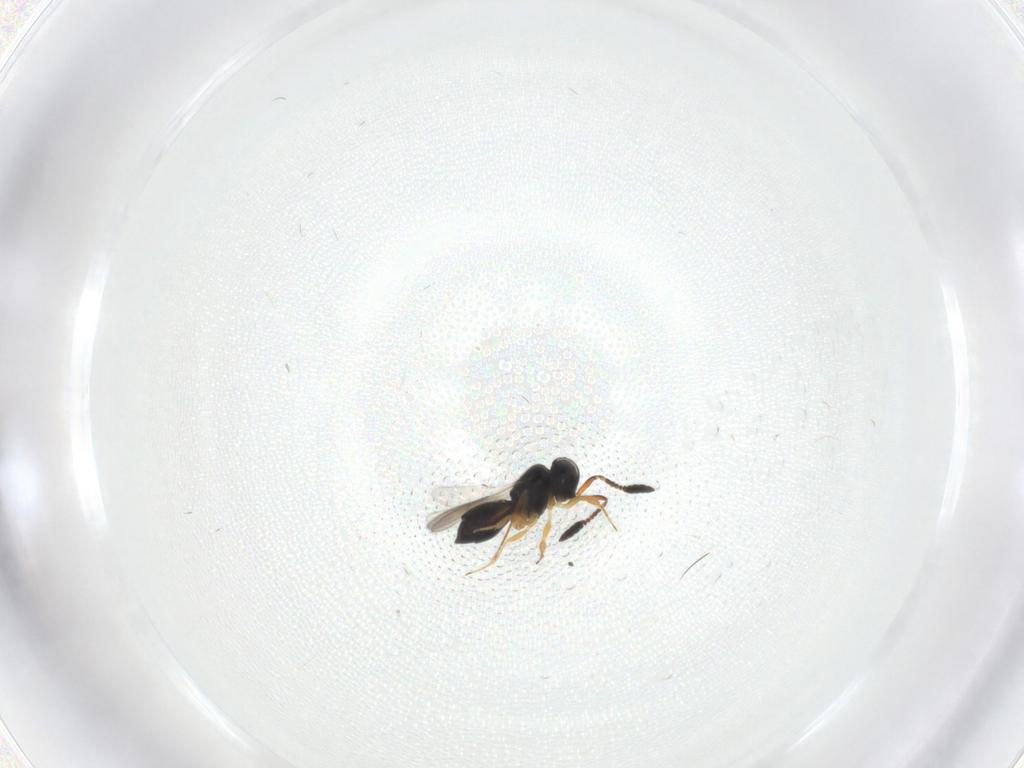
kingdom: Animalia
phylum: Arthropoda
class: Insecta
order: Hymenoptera
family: Scelionidae
